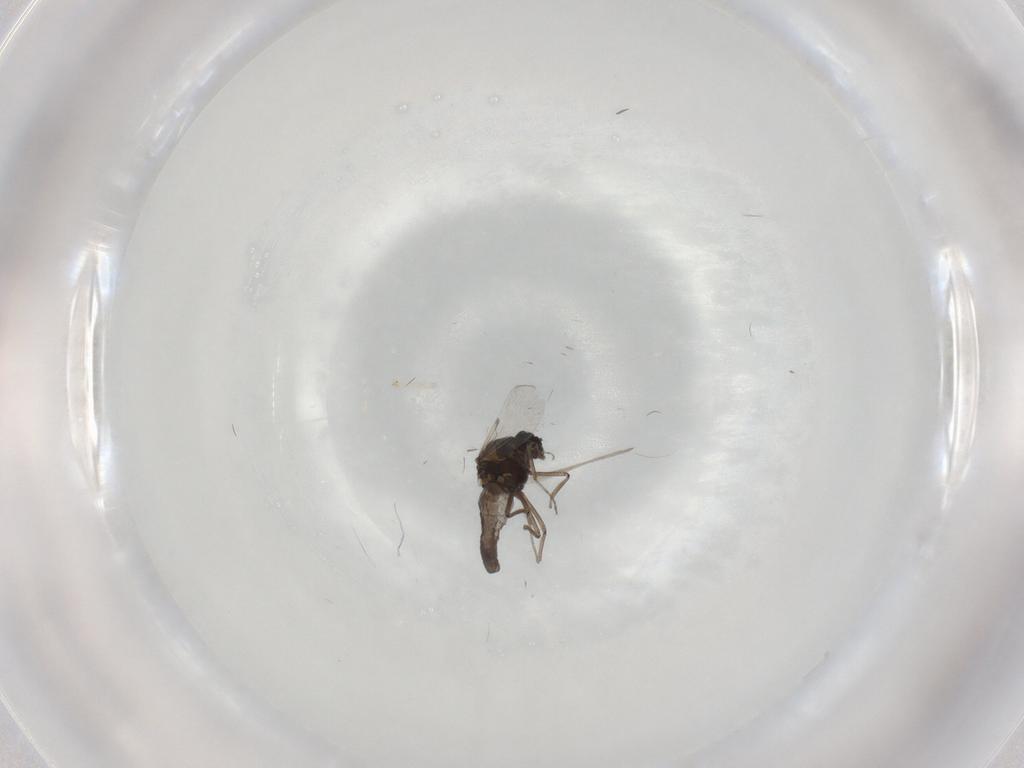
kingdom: Animalia
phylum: Arthropoda
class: Insecta
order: Diptera
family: Ceratopogonidae
